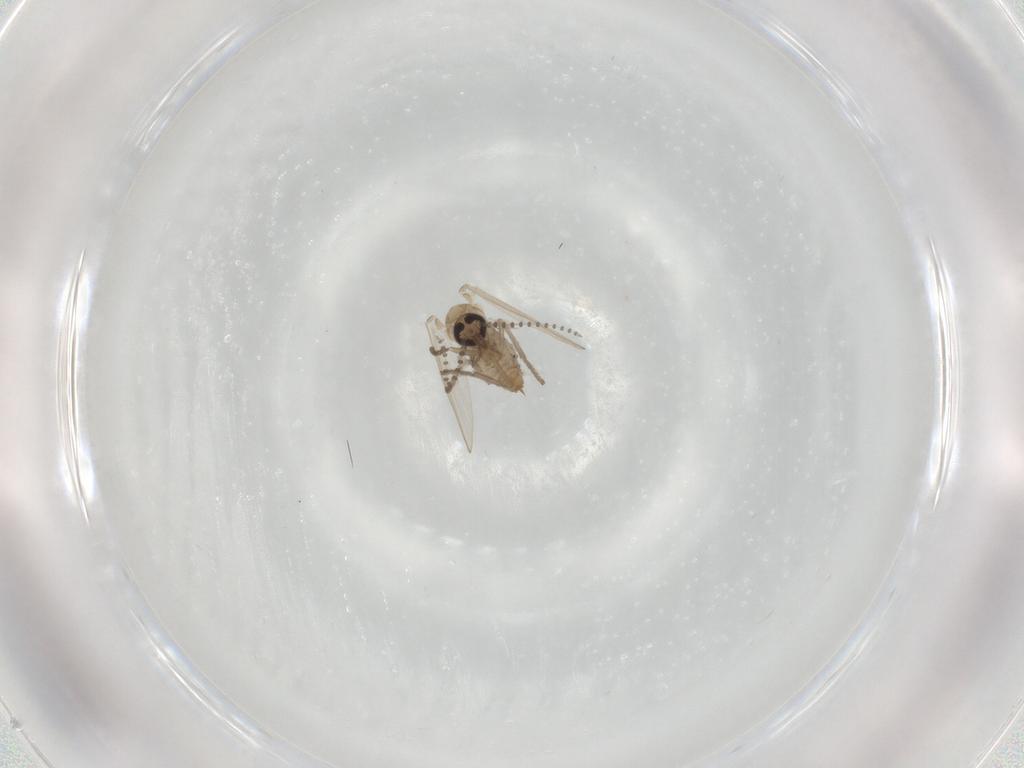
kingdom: Animalia
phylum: Arthropoda
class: Insecta
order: Diptera
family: Psychodidae
